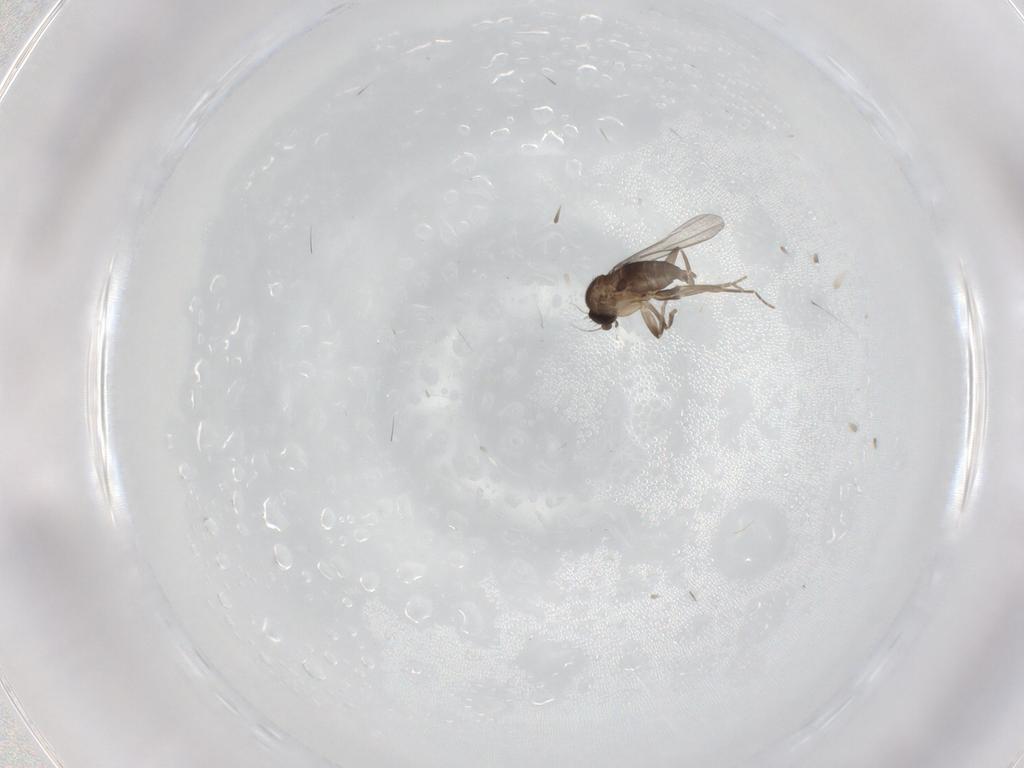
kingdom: Animalia
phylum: Arthropoda
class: Insecta
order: Diptera
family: Phoridae
